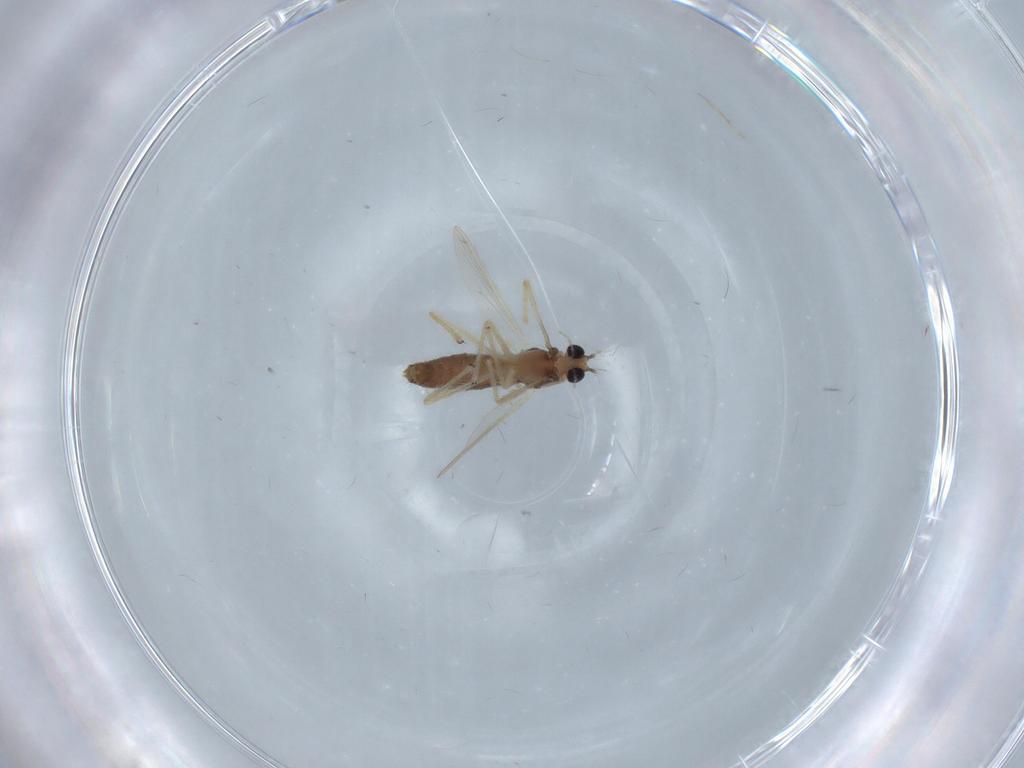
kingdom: Animalia
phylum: Arthropoda
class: Insecta
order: Diptera
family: Chironomidae
